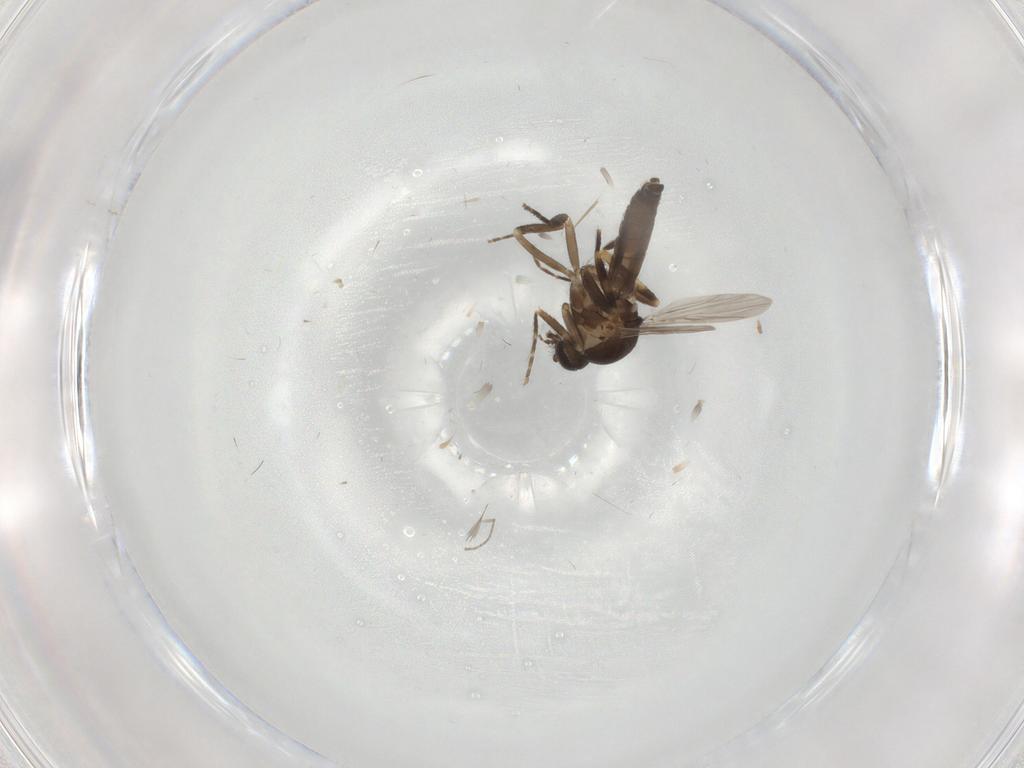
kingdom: Animalia
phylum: Arthropoda
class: Insecta
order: Diptera
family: Ceratopogonidae
